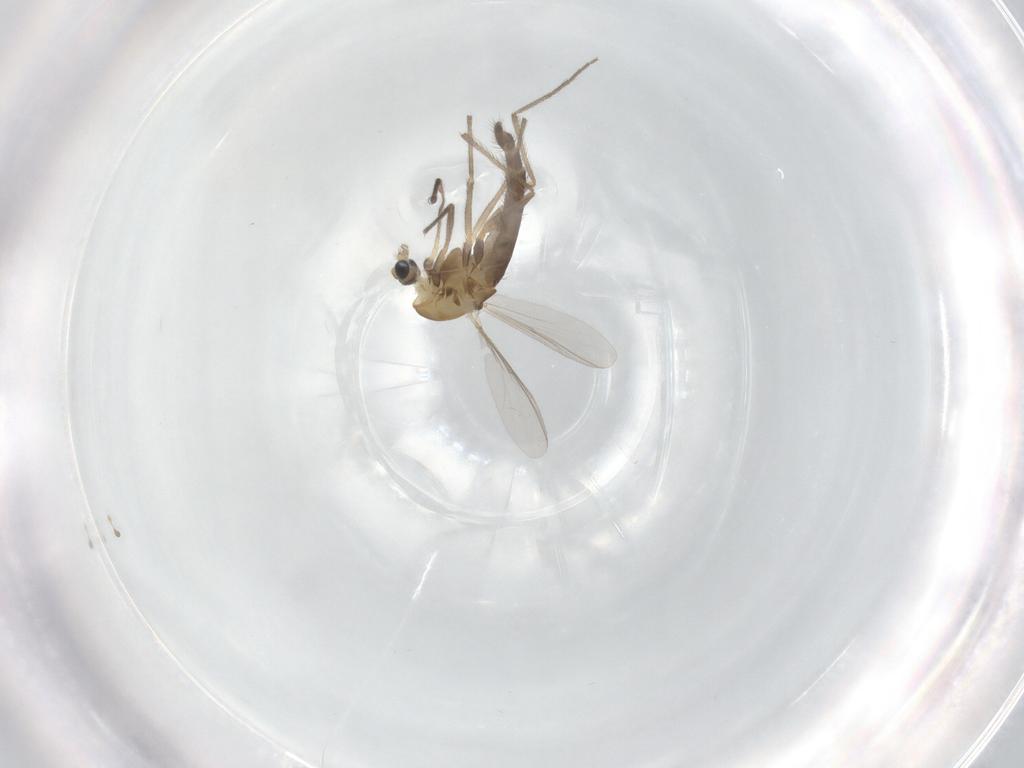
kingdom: Animalia
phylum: Arthropoda
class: Insecta
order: Diptera
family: Chironomidae
